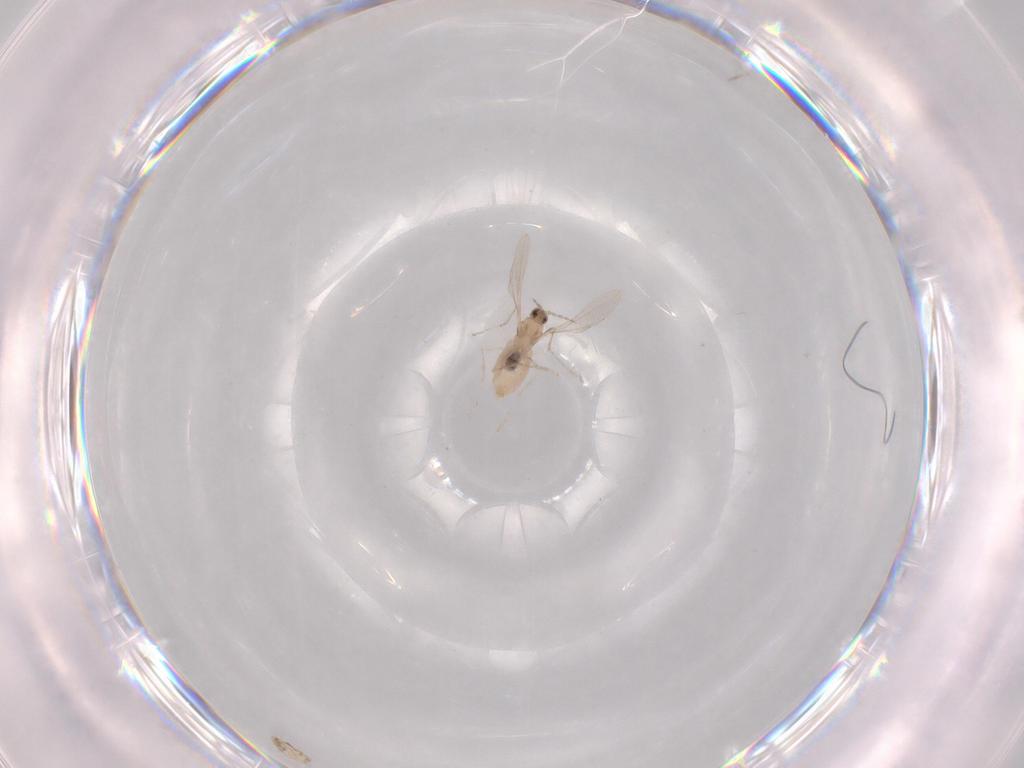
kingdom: Animalia
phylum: Arthropoda
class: Insecta
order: Diptera
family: Cecidomyiidae
